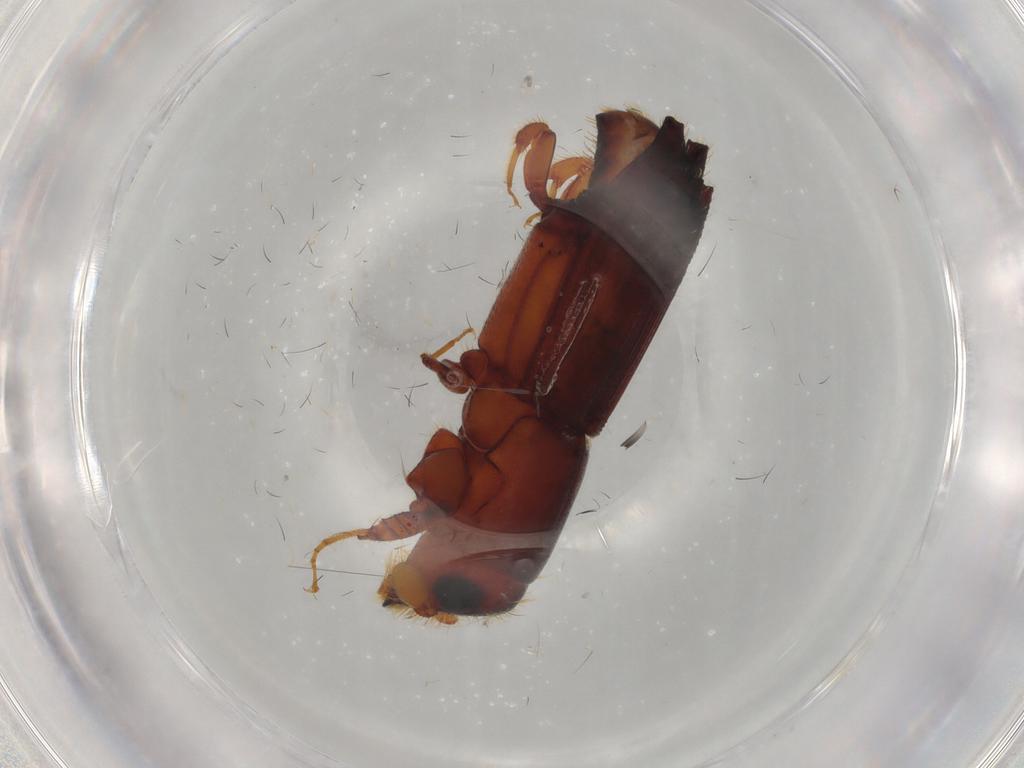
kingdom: Animalia
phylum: Arthropoda
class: Insecta
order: Coleoptera
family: Curculionidae
